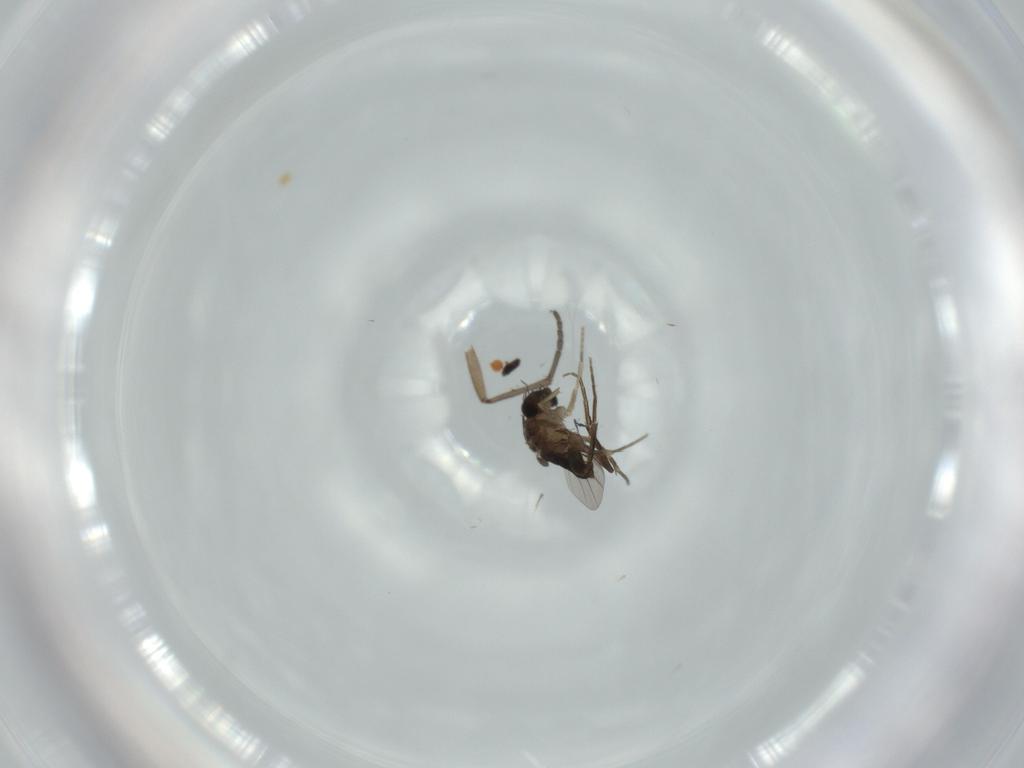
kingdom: Animalia
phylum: Arthropoda
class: Insecta
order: Diptera
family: Phoridae
